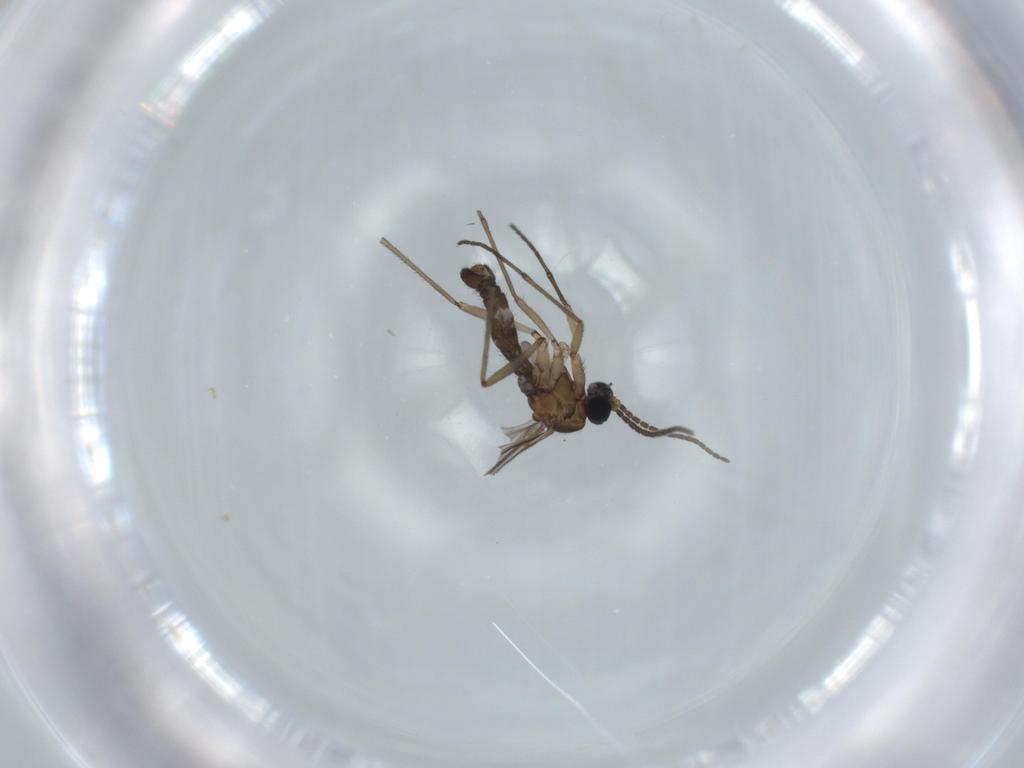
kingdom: Animalia
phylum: Arthropoda
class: Insecta
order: Diptera
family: Sciaridae
